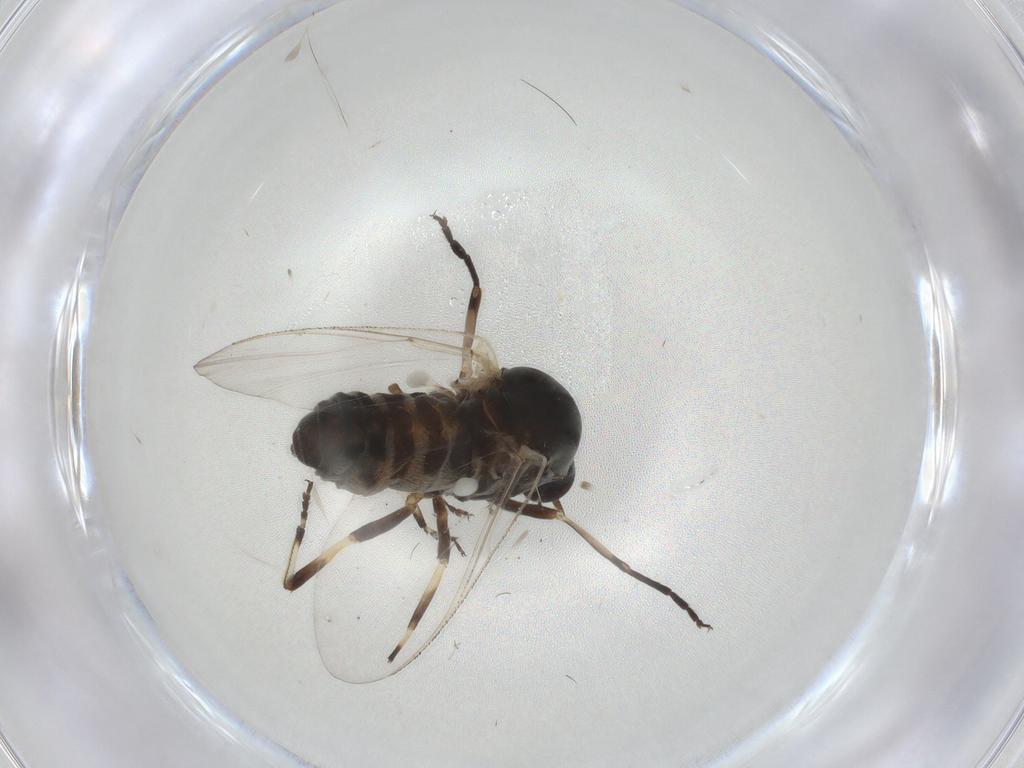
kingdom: Animalia
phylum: Arthropoda
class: Insecta
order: Diptera
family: Simuliidae
